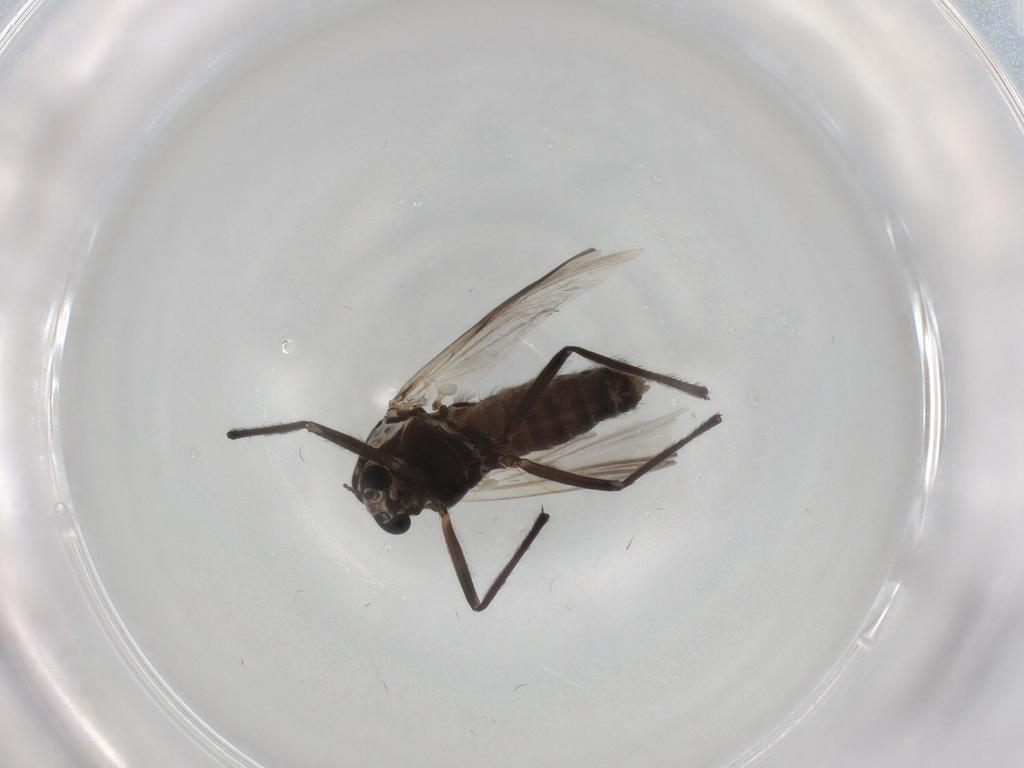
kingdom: Animalia
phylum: Arthropoda
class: Insecta
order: Diptera
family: Chironomidae
